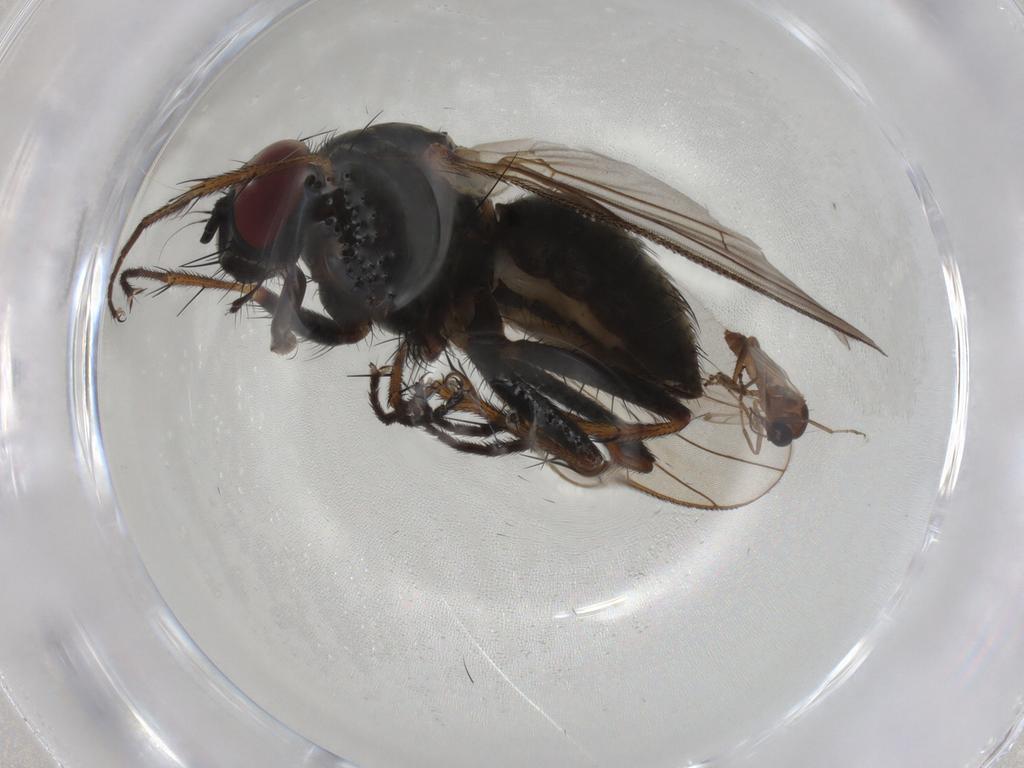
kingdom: Animalia
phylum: Arthropoda
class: Insecta
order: Diptera
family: Ceratopogonidae
